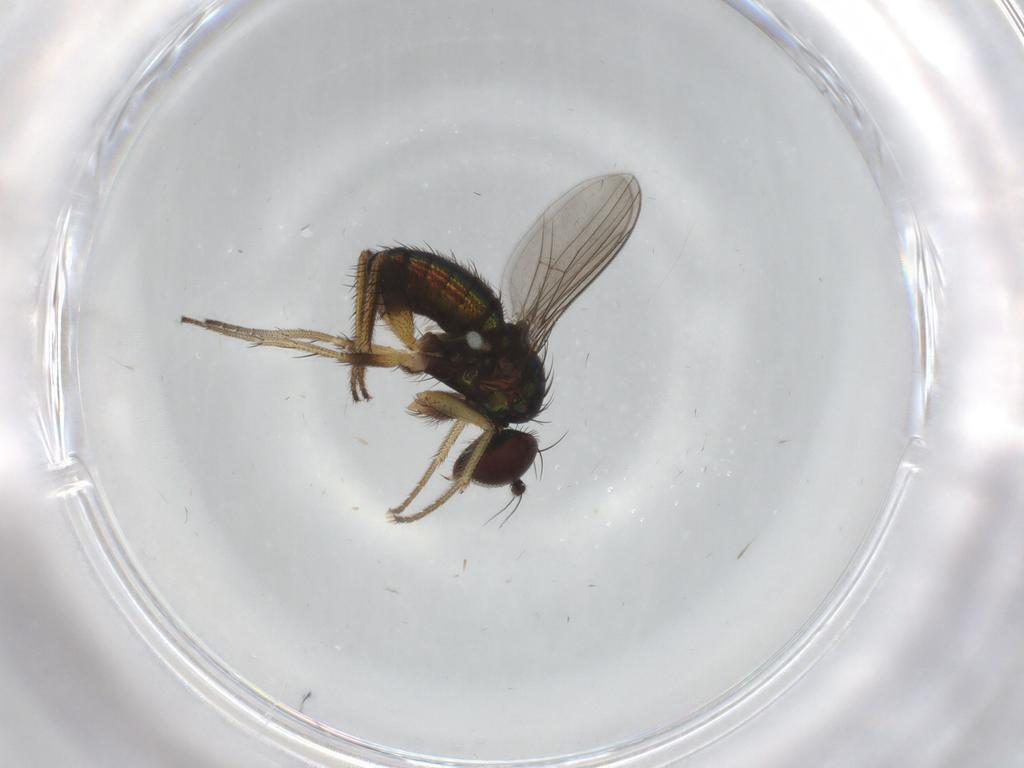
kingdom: Animalia
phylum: Arthropoda
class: Insecta
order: Diptera
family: Dolichopodidae
